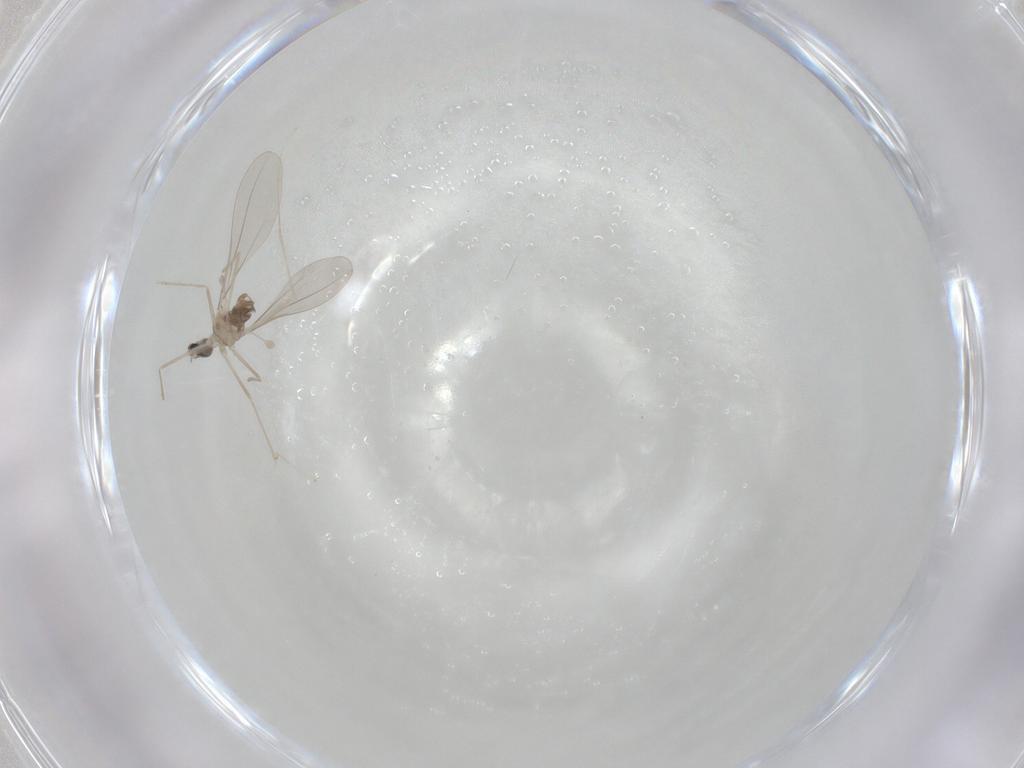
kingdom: Animalia
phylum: Arthropoda
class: Insecta
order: Diptera
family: Cecidomyiidae
